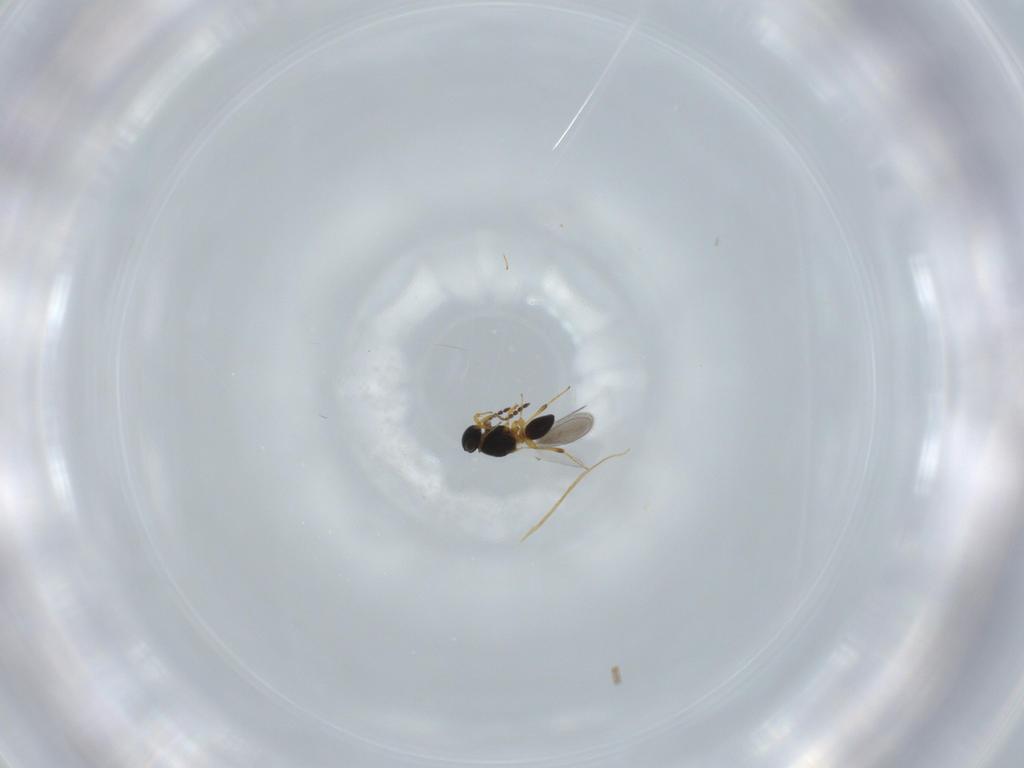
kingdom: Animalia
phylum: Arthropoda
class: Insecta
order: Hymenoptera
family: Platygastridae
